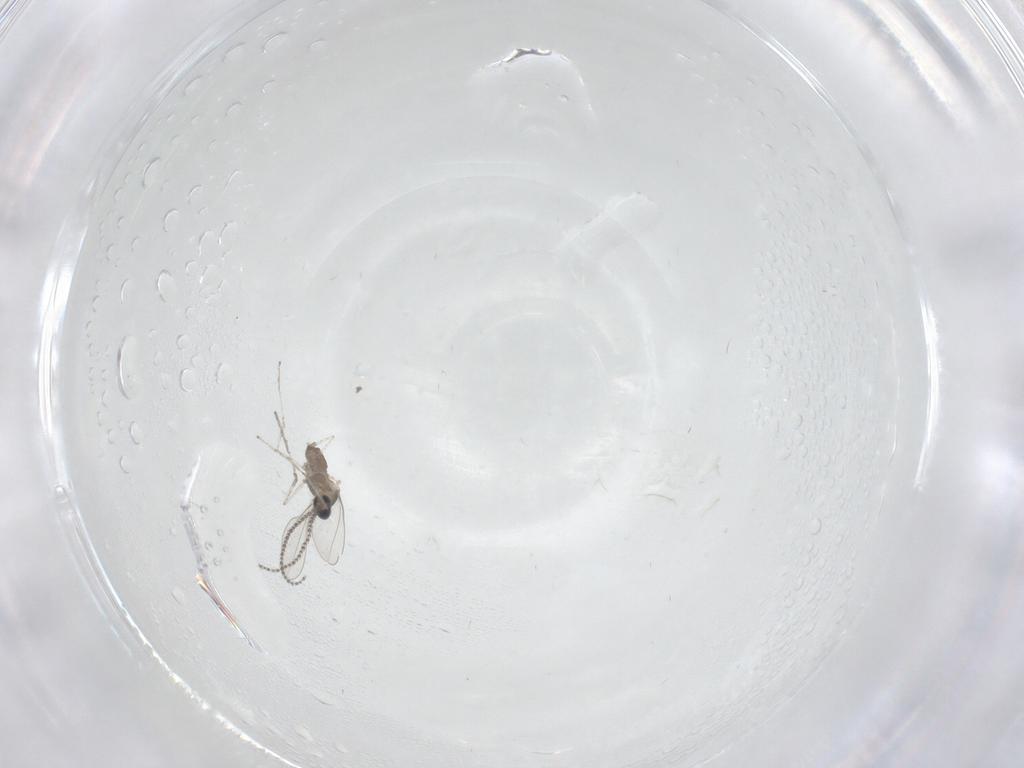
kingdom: Animalia
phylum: Arthropoda
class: Insecta
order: Diptera
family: Cecidomyiidae
